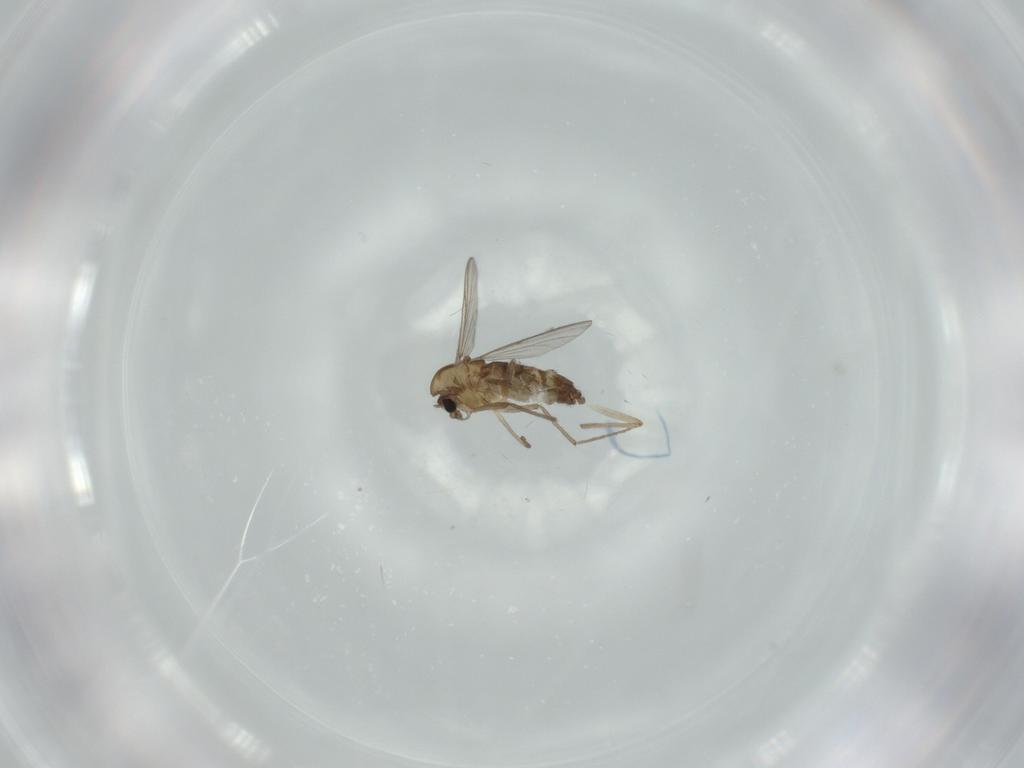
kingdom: Animalia
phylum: Arthropoda
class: Insecta
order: Diptera
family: Chironomidae
